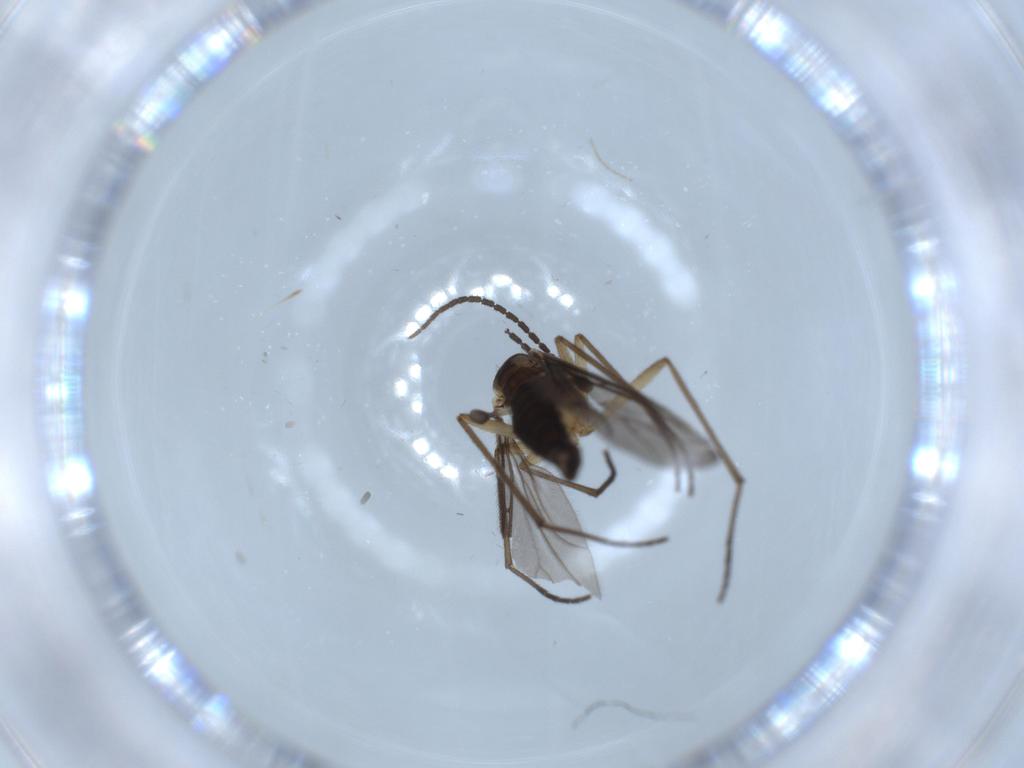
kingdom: Animalia
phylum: Arthropoda
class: Insecta
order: Diptera
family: Sciaridae
